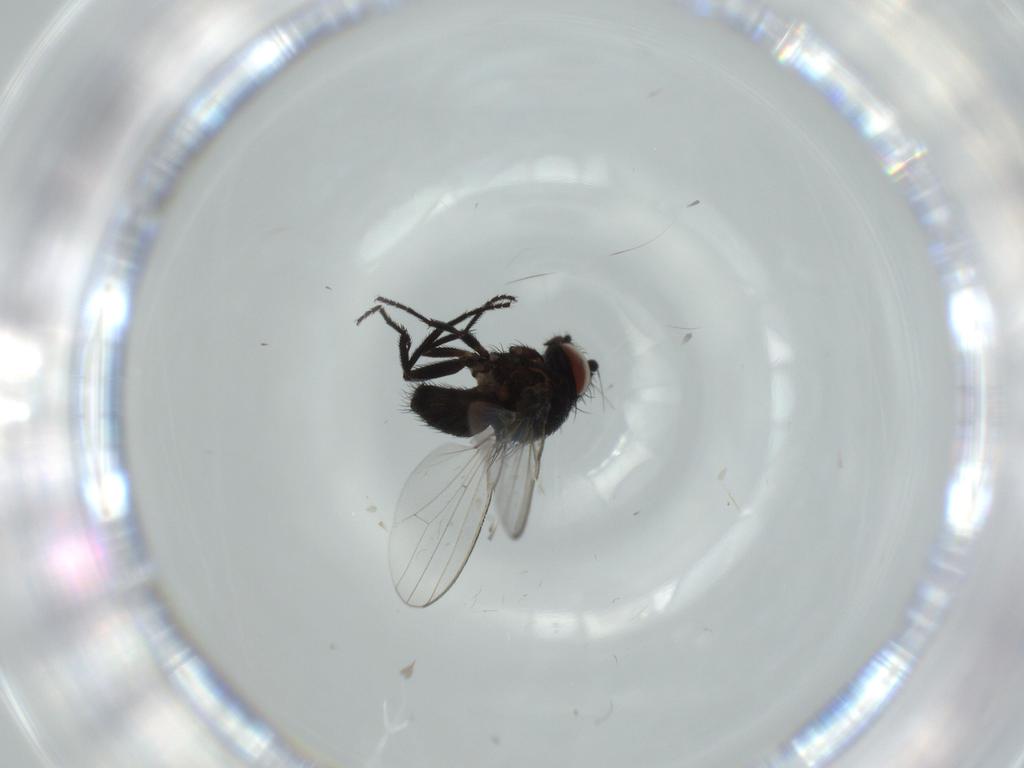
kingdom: Animalia
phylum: Arthropoda
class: Insecta
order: Diptera
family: Milichiidae
